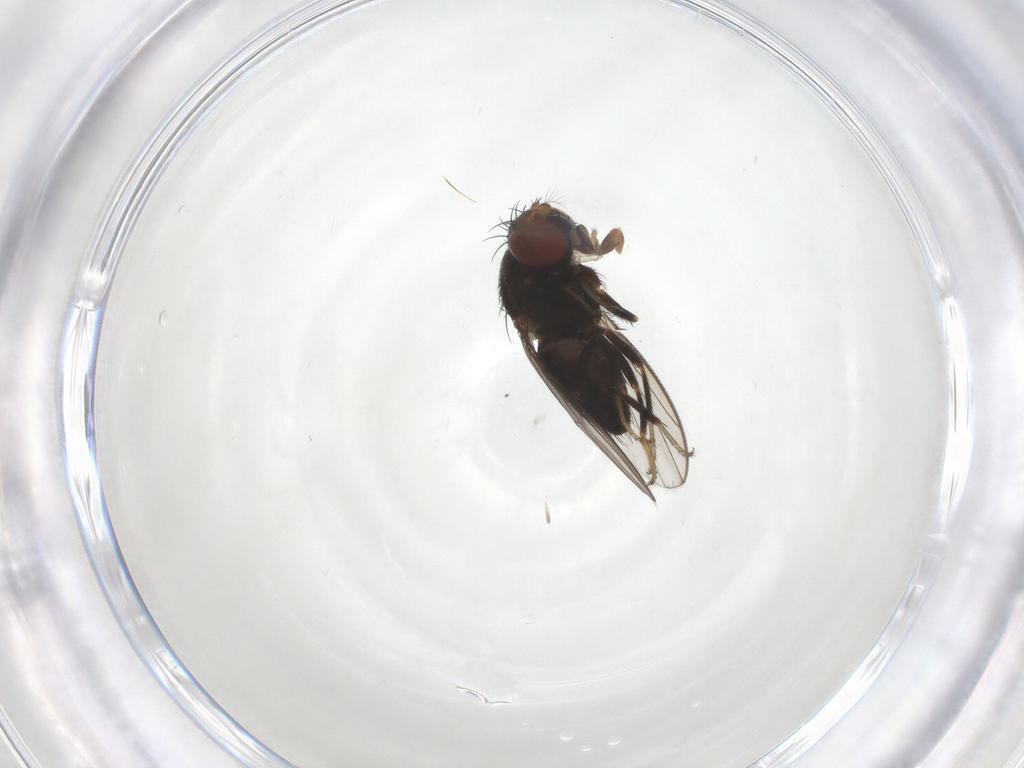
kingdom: Animalia
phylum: Arthropoda
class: Insecta
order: Diptera
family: Ephydridae
